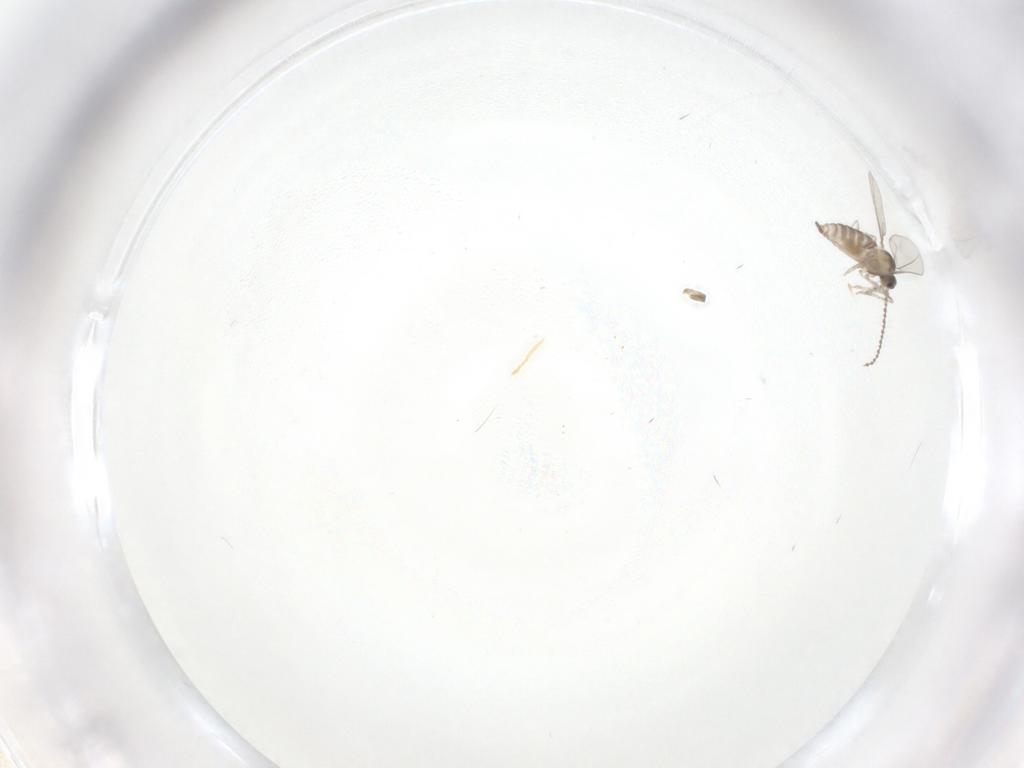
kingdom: Animalia
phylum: Arthropoda
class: Insecta
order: Diptera
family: Cecidomyiidae
